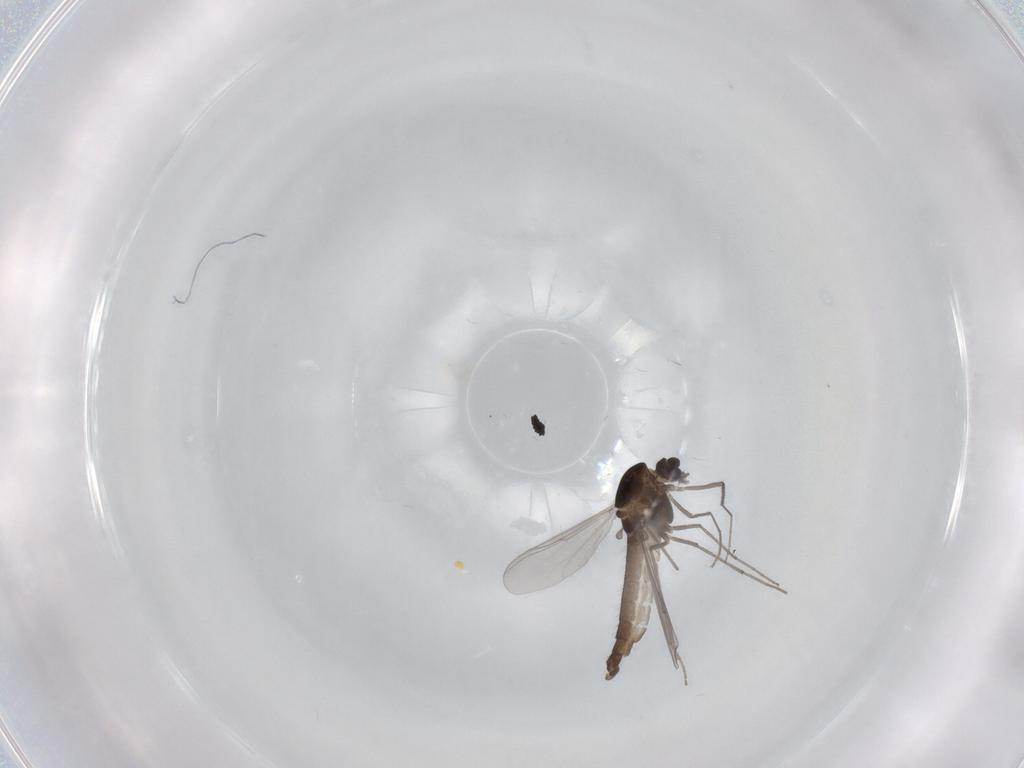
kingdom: Animalia
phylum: Arthropoda
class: Insecta
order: Diptera
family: Chironomidae
